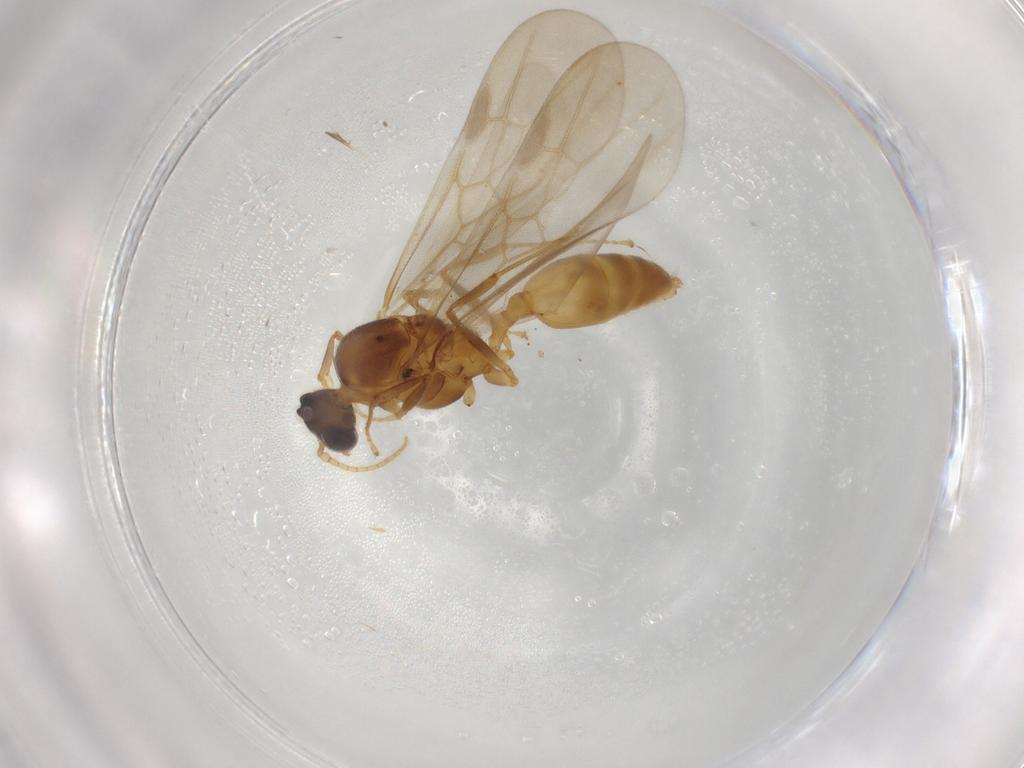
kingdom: Animalia
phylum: Arthropoda
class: Insecta
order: Hymenoptera
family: Formicidae
